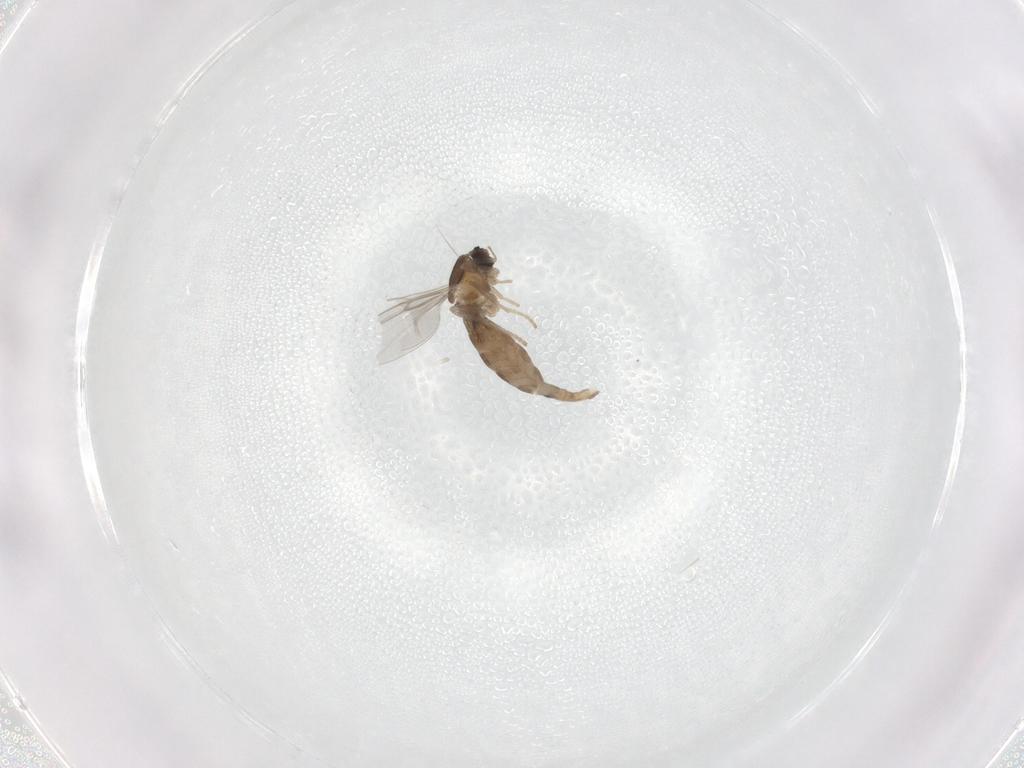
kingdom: Animalia
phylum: Arthropoda
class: Insecta
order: Diptera
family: Cecidomyiidae
